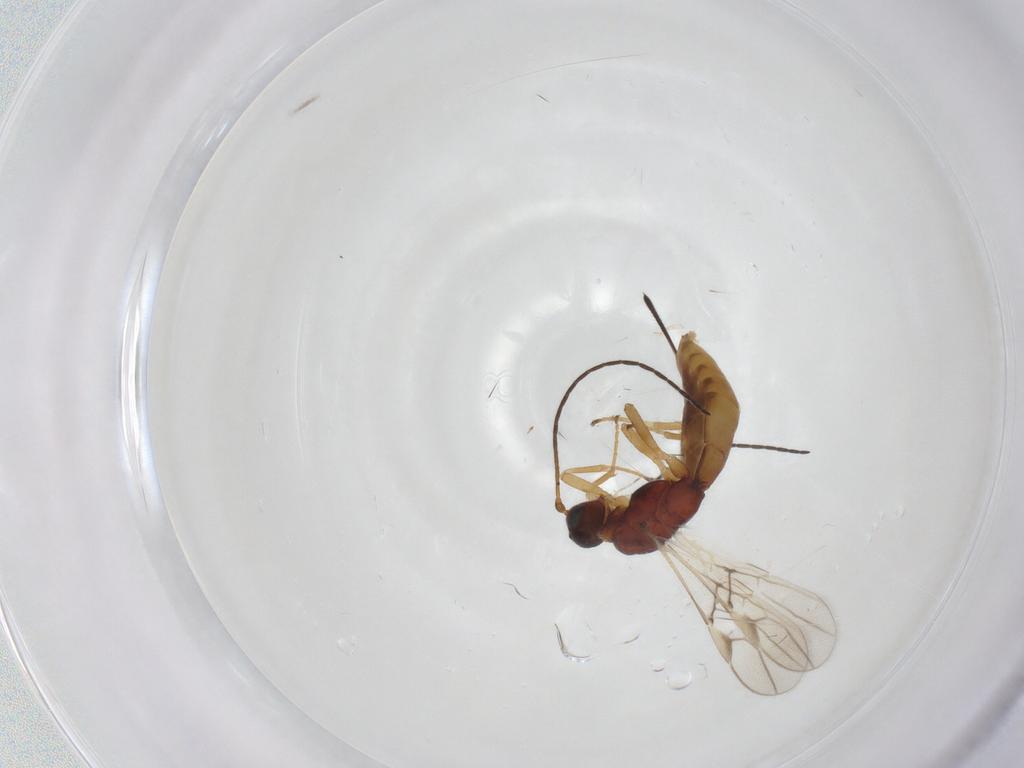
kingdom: Animalia
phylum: Arthropoda
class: Insecta
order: Hymenoptera
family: Braconidae
